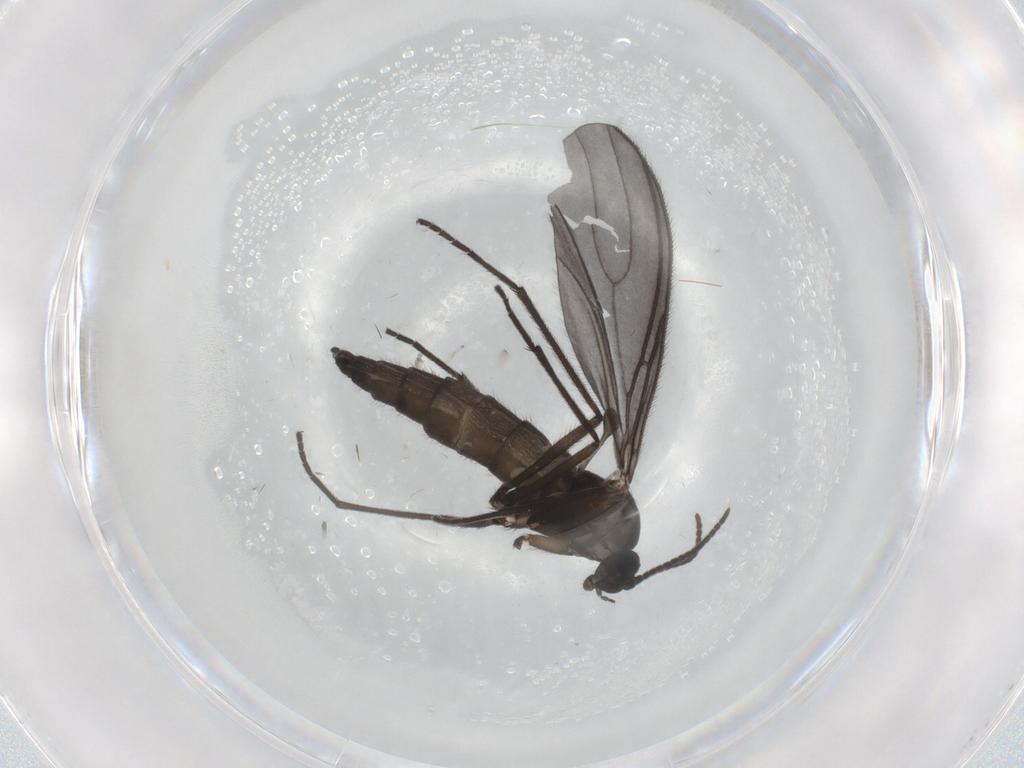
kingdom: Animalia
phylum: Arthropoda
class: Insecta
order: Diptera
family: Sciaridae
